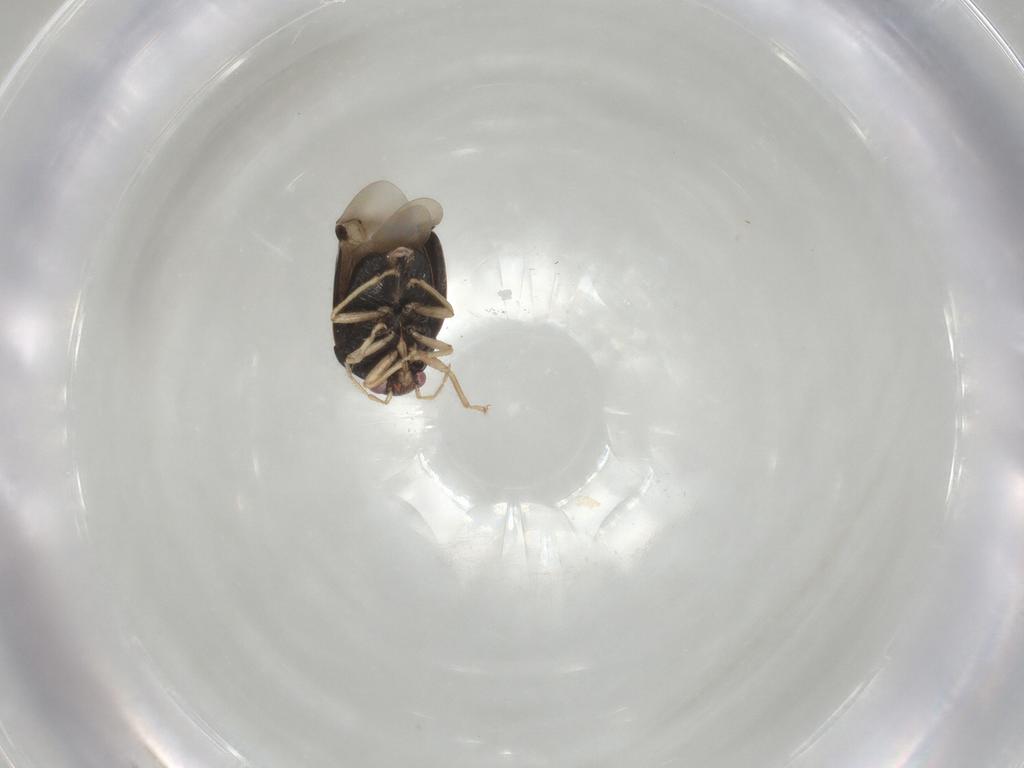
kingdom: Animalia
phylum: Arthropoda
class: Insecta
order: Hemiptera
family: Miridae
